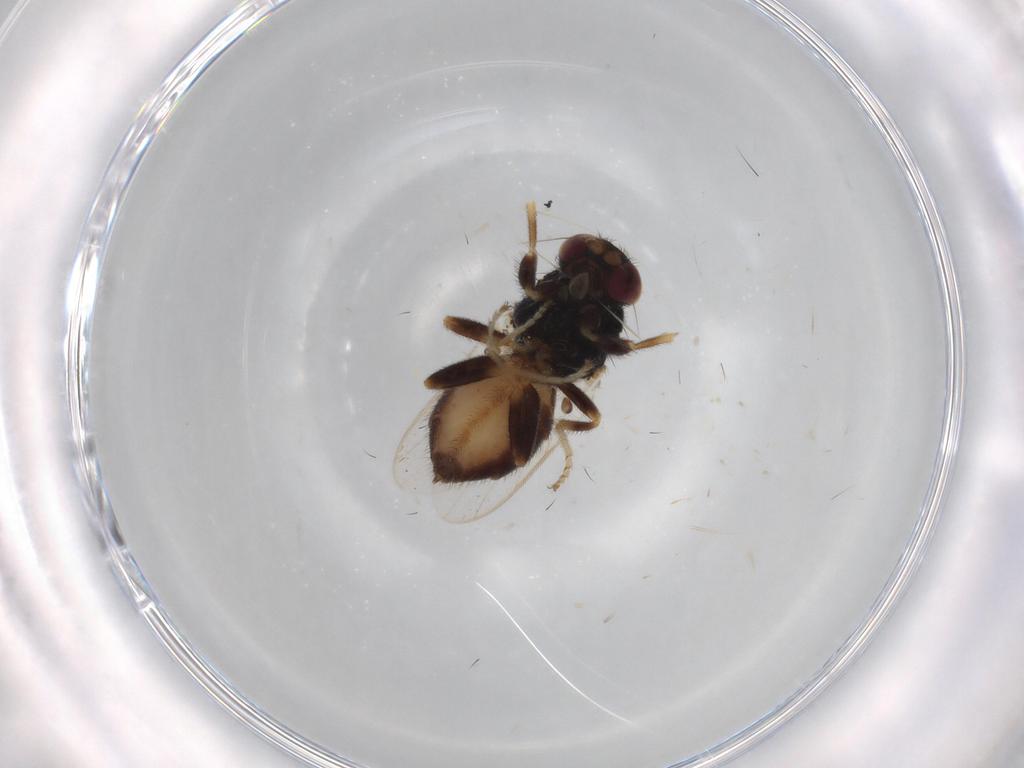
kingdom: Animalia
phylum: Arthropoda
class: Insecta
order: Diptera
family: Chloropidae
